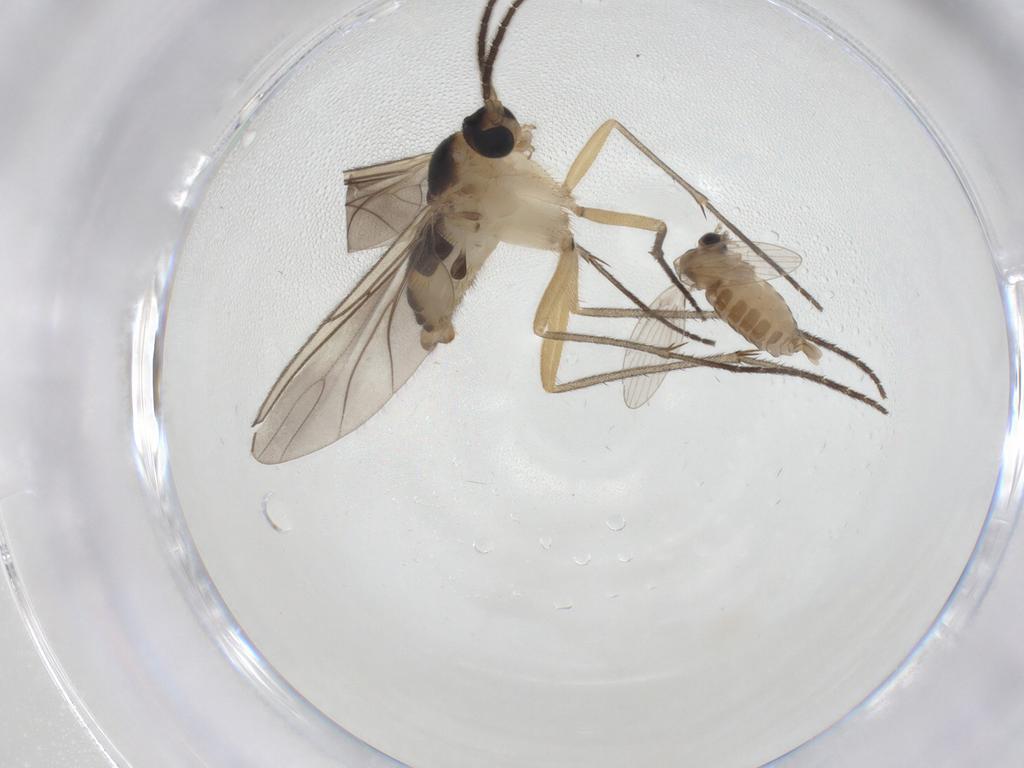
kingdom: Animalia
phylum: Arthropoda
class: Insecta
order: Diptera
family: Sciaridae
